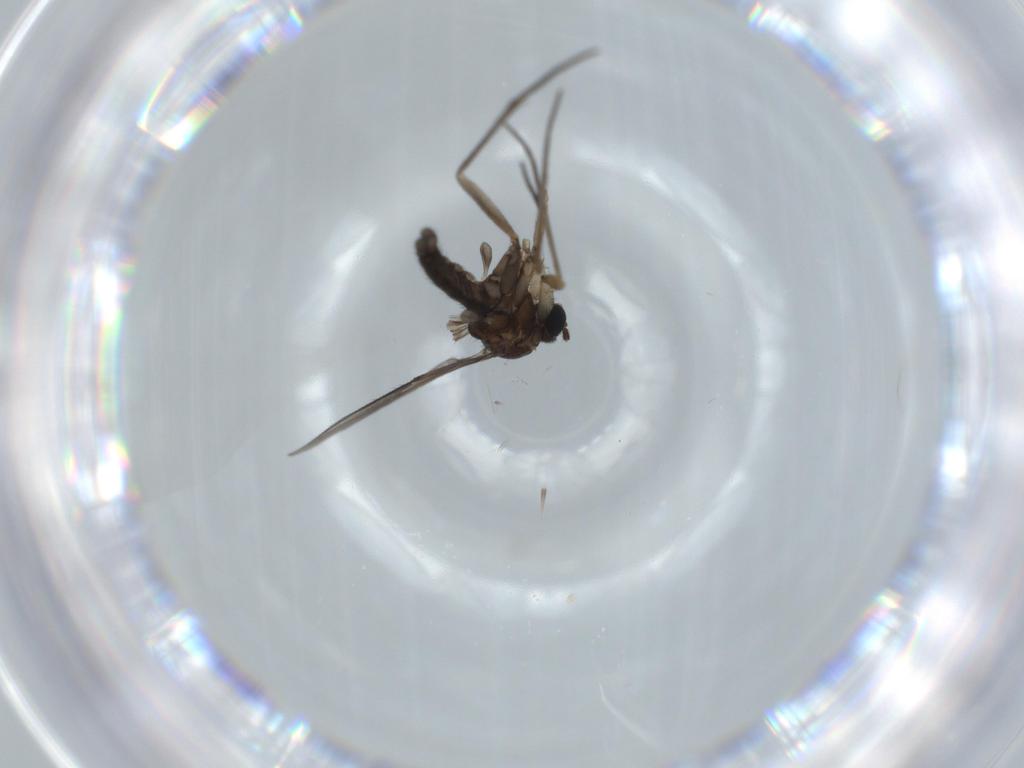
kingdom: Animalia
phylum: Arthropoda
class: Insecta
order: Diptera
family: Sciaridae
